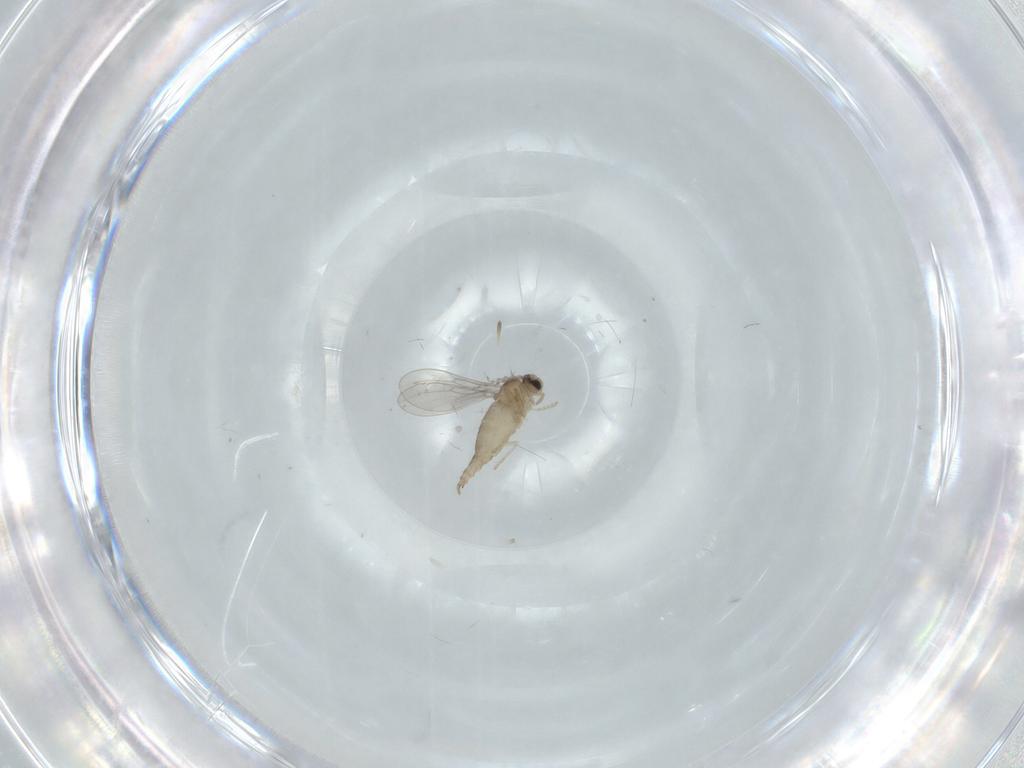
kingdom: Animalia
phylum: Arthropoda
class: Insecta
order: Diptera
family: Cecidomyiidae
